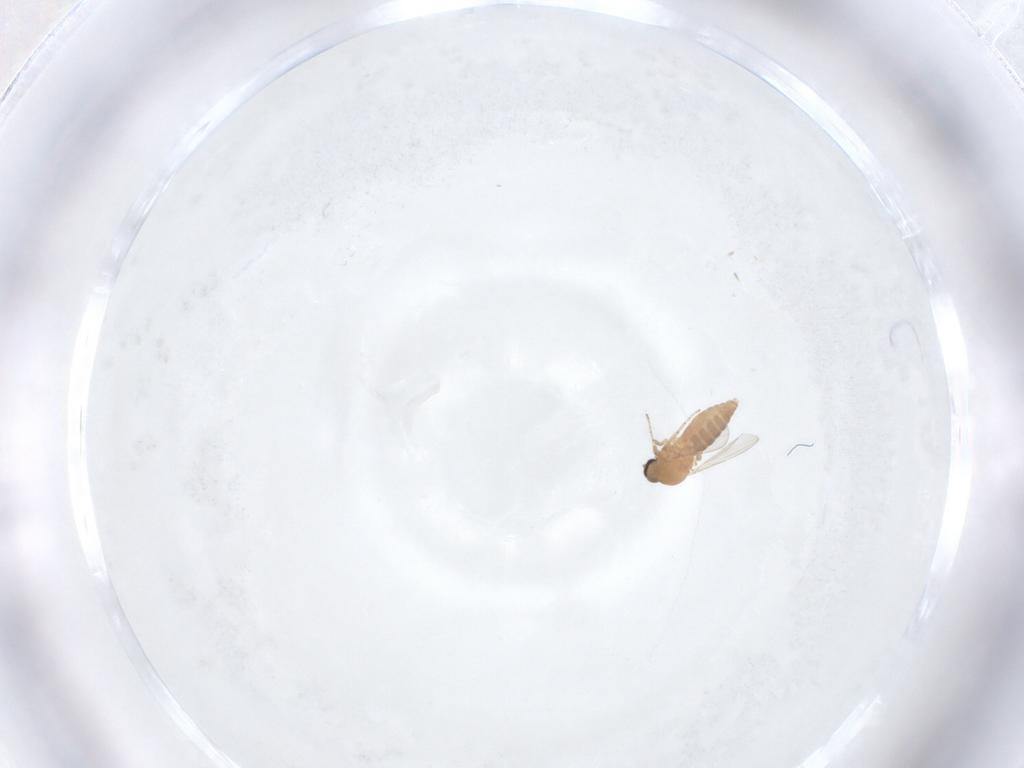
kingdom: Animalia
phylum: Arthropoda
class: Insecta
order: Diptera
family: Ceratopogonidae
